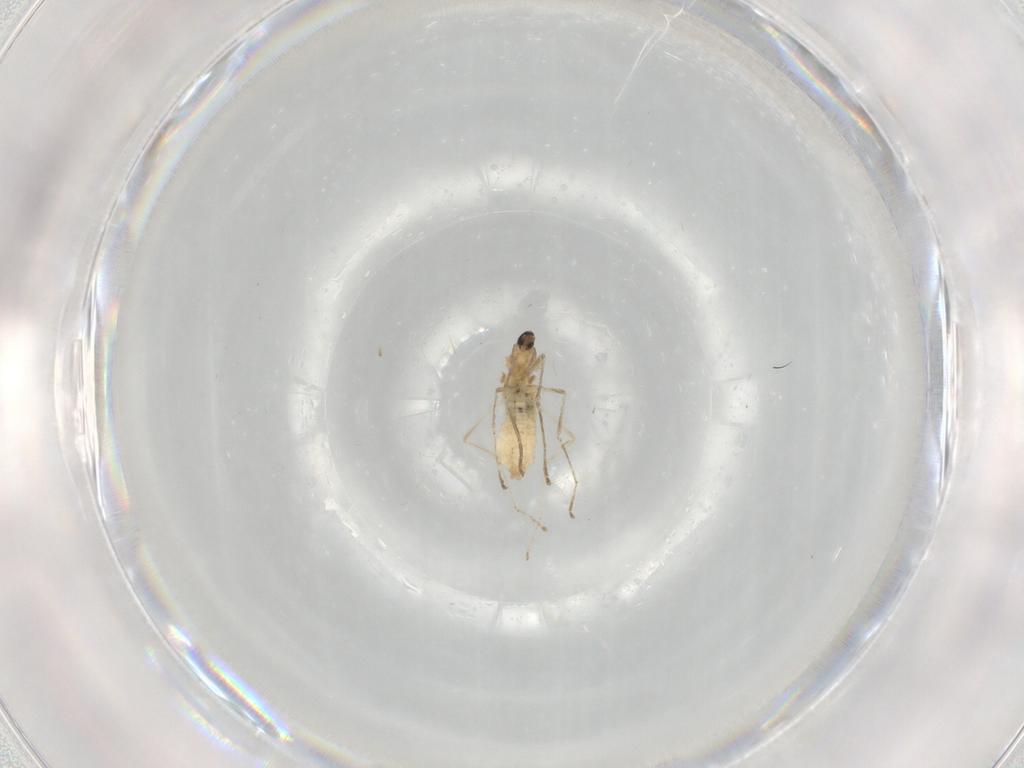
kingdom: Animalia
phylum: Arthropoda
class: Insecta
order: Diptera
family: Cecidomyiidae
